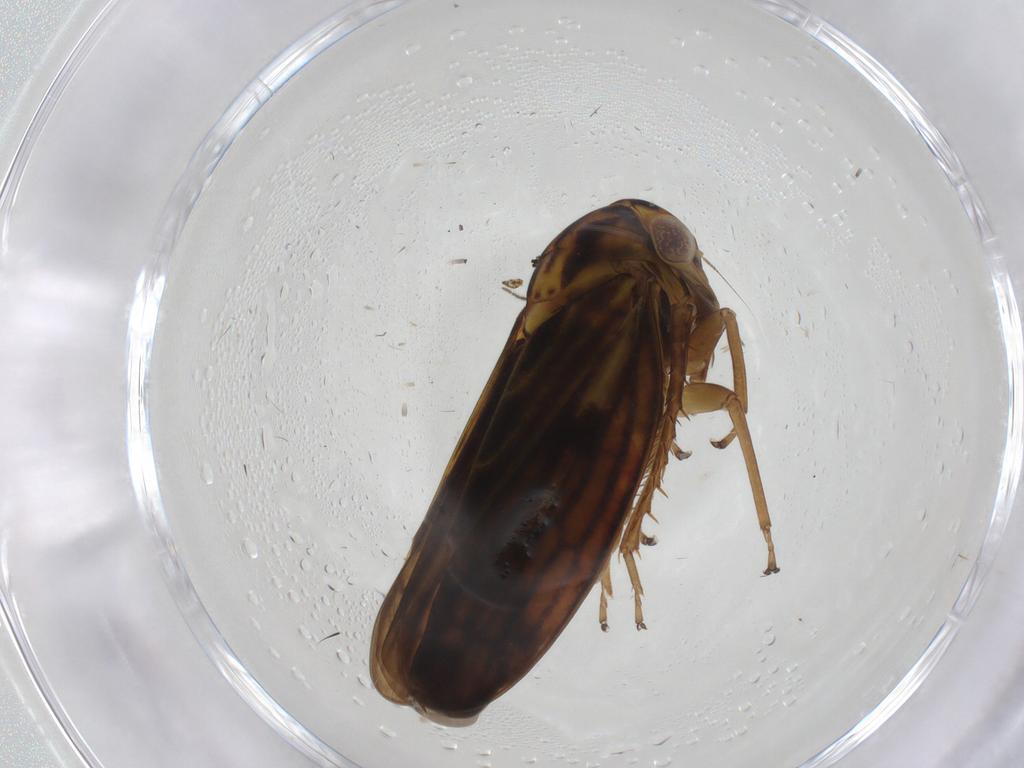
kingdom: Animalia
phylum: Arthropoda
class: Insecta
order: Hemiptera
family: Cicadellidae
